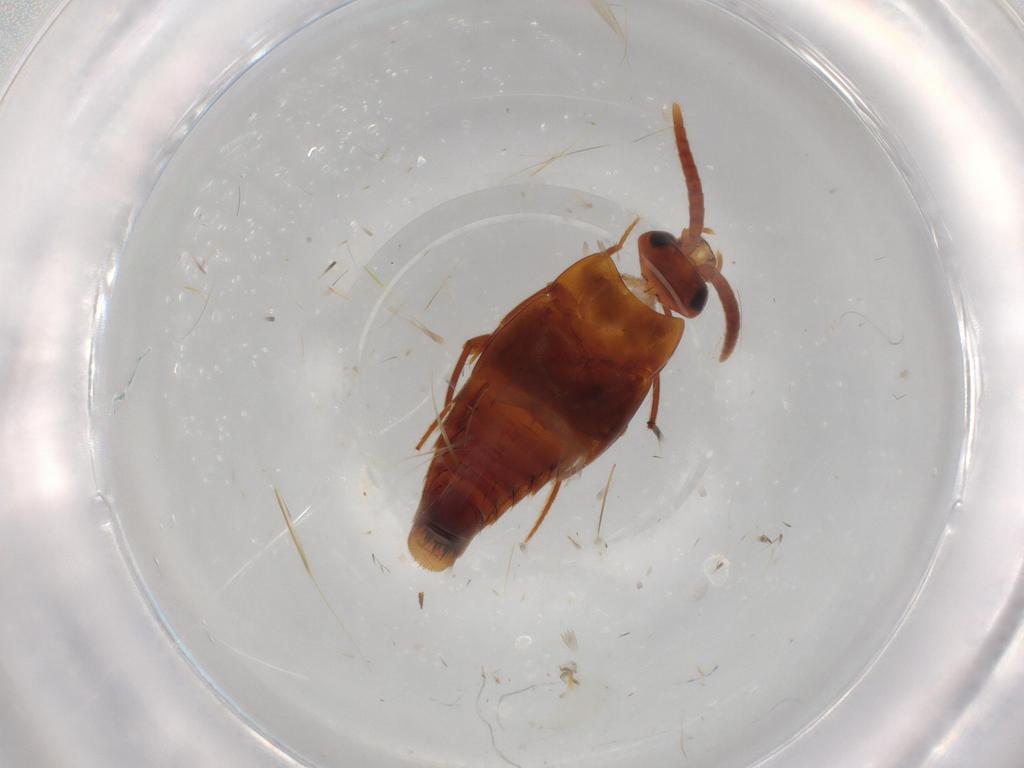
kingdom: Animalia
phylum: Arthropoda
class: Insecta
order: Coleoptera
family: Staphylinidae
